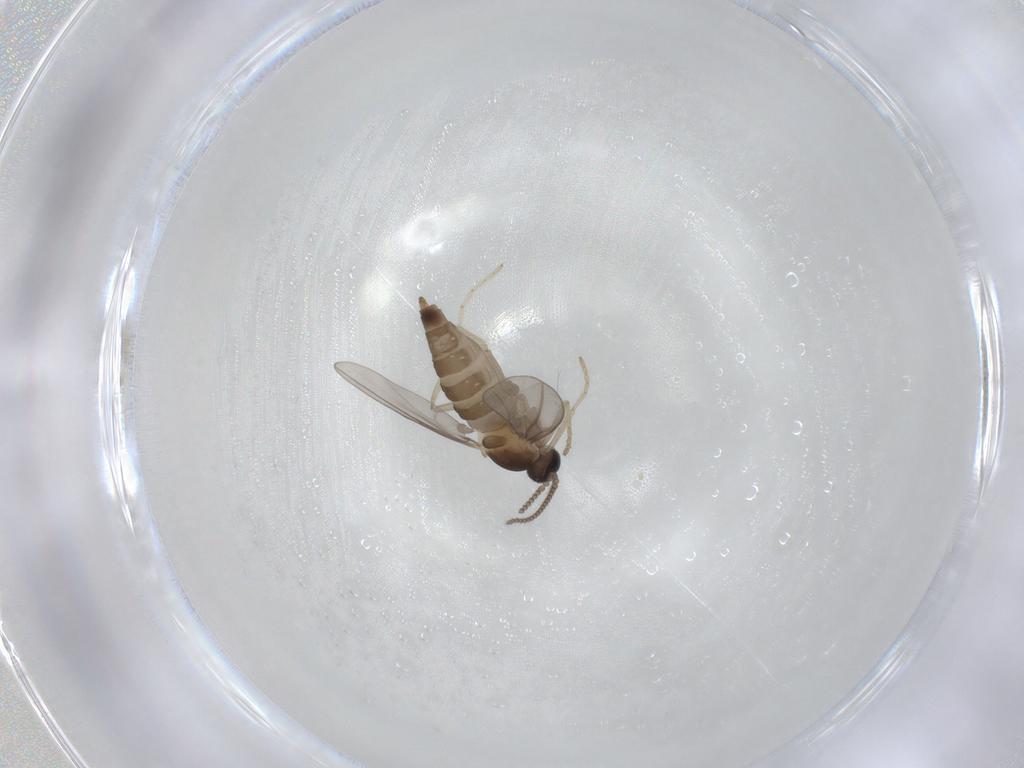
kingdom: Animalia
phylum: Arthropoda
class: Insecta
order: Diptera
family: Cecidomyiidae
